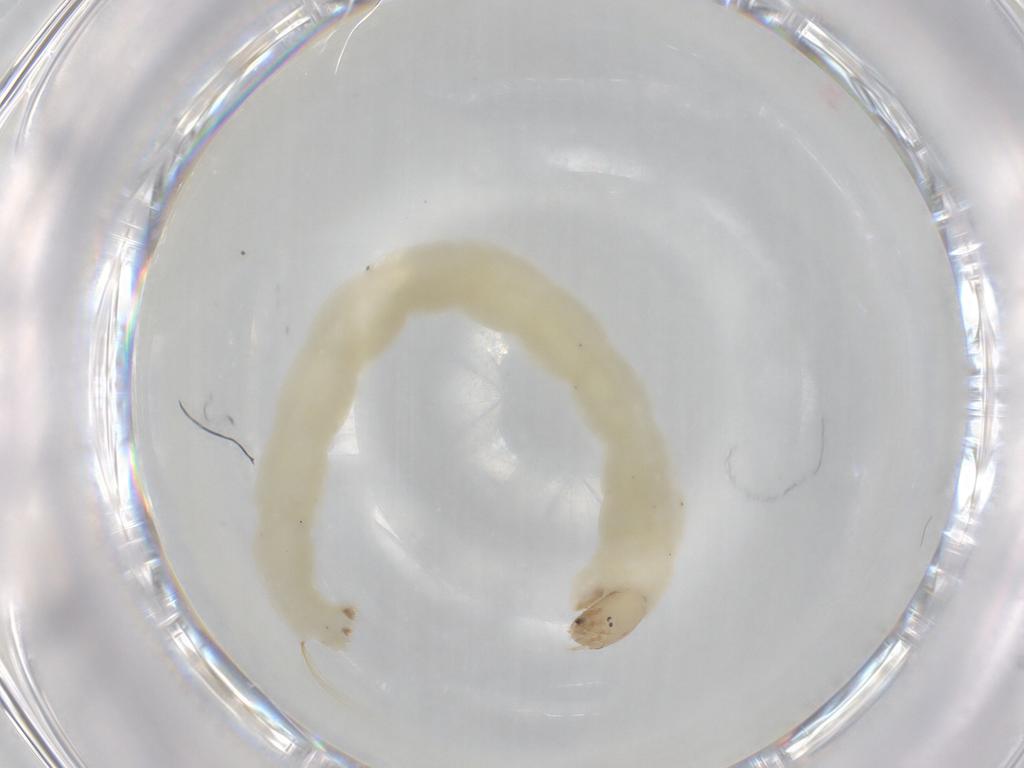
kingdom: Animalia
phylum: Arthropoda
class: Insecta
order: Diptera
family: Chironomidae
